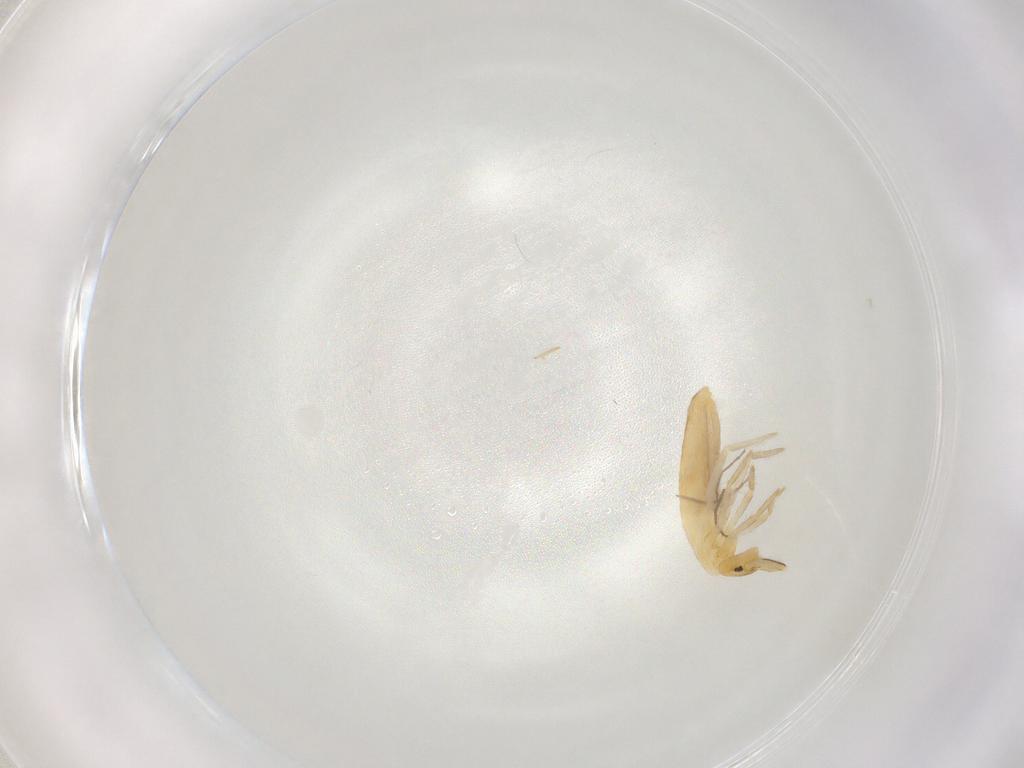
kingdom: Animalia
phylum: Arthropoda
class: Collembola
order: Entomobryomorpha
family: Entomobryidae
